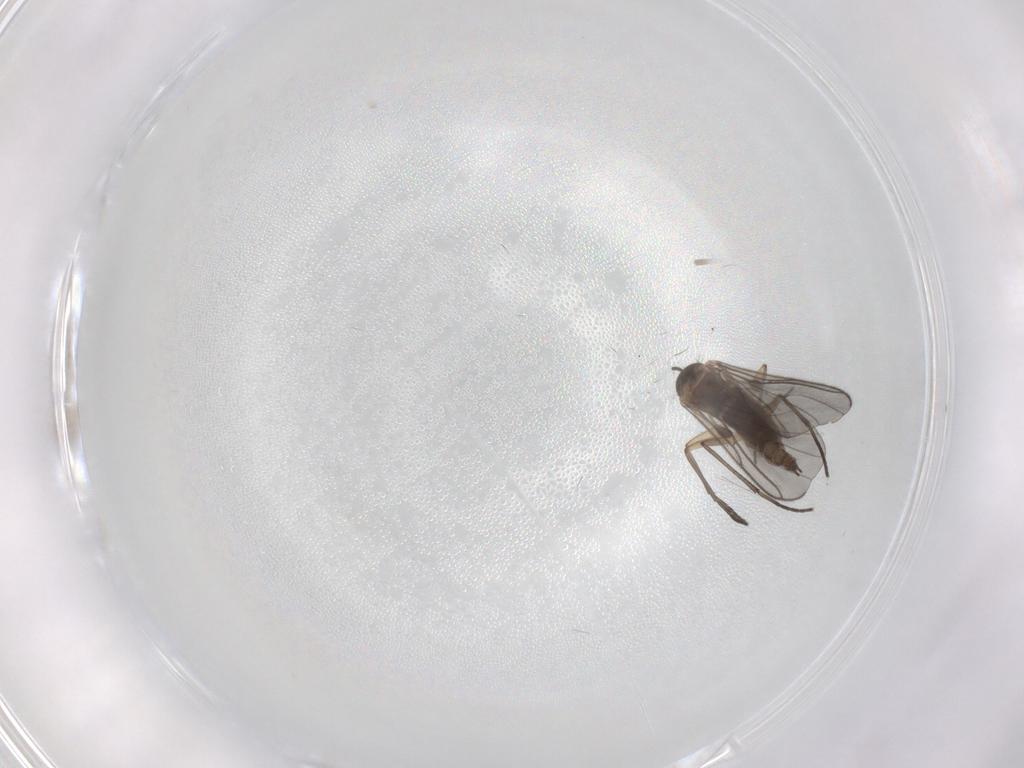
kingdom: Animalia
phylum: Arthropoda
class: Insecta
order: Diptera
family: Sciaridae
